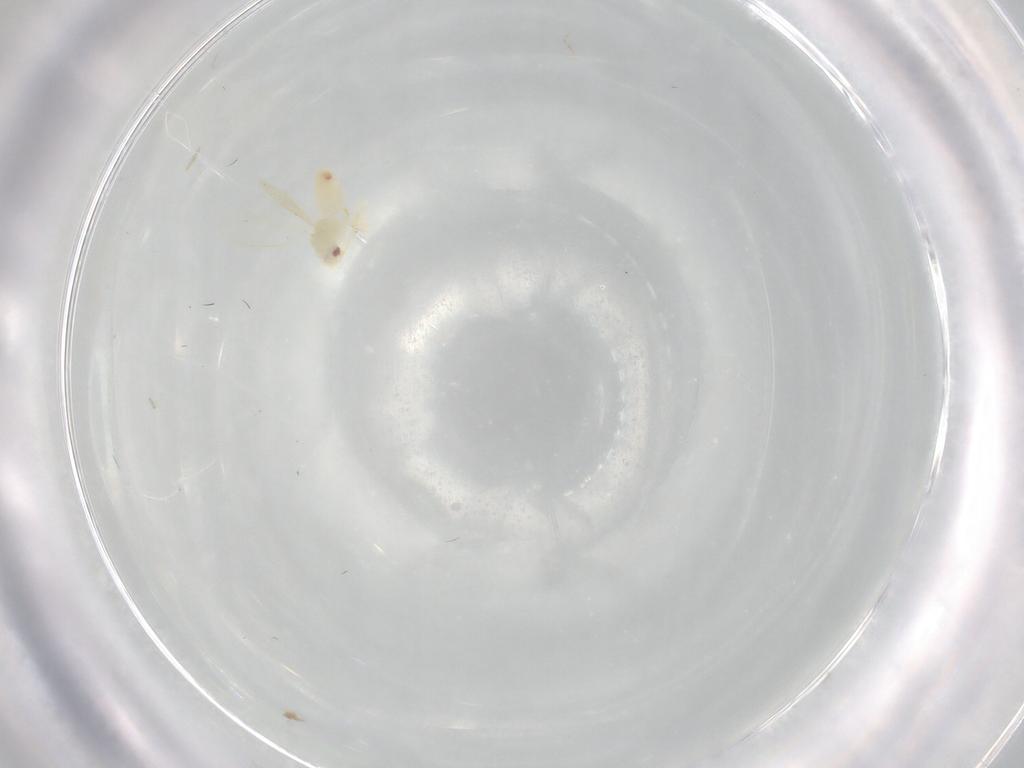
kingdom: Animalia
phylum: Arthropoda
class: Insecta
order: Hemiptera
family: Aleyrodidae
